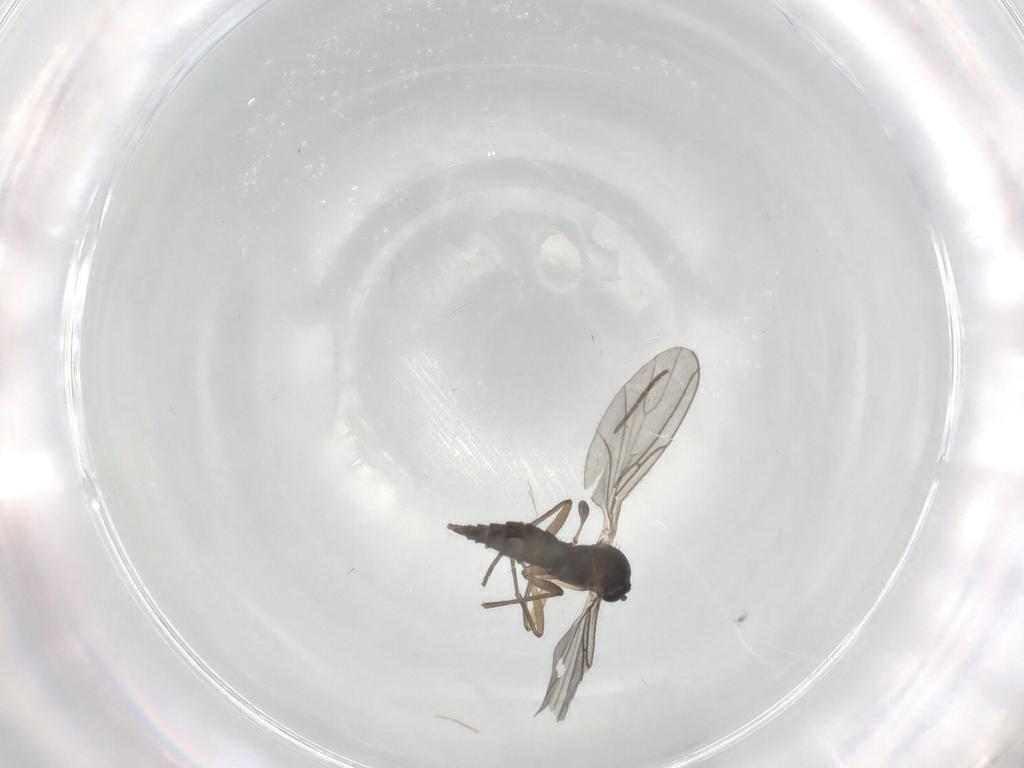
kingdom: Animalia
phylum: Arthropoda
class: Insecta
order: Diptera
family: Drosophilidae
